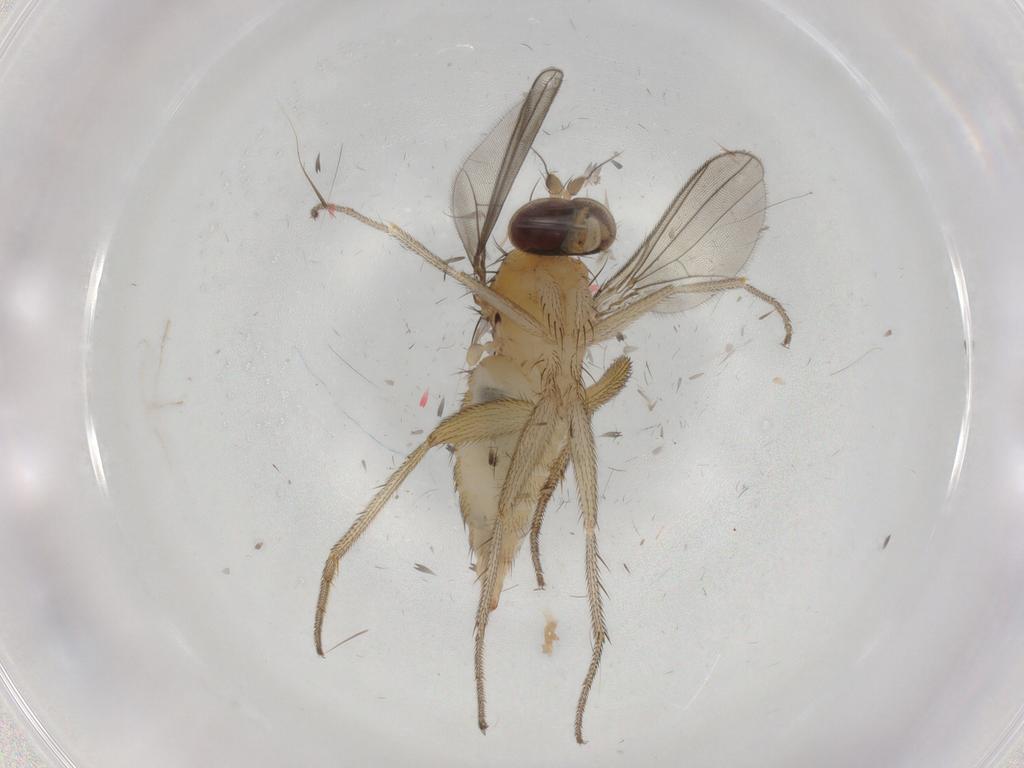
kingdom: Animalia
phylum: Arthropoda
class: Insecta
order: Diptera
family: Dolichopodidae
